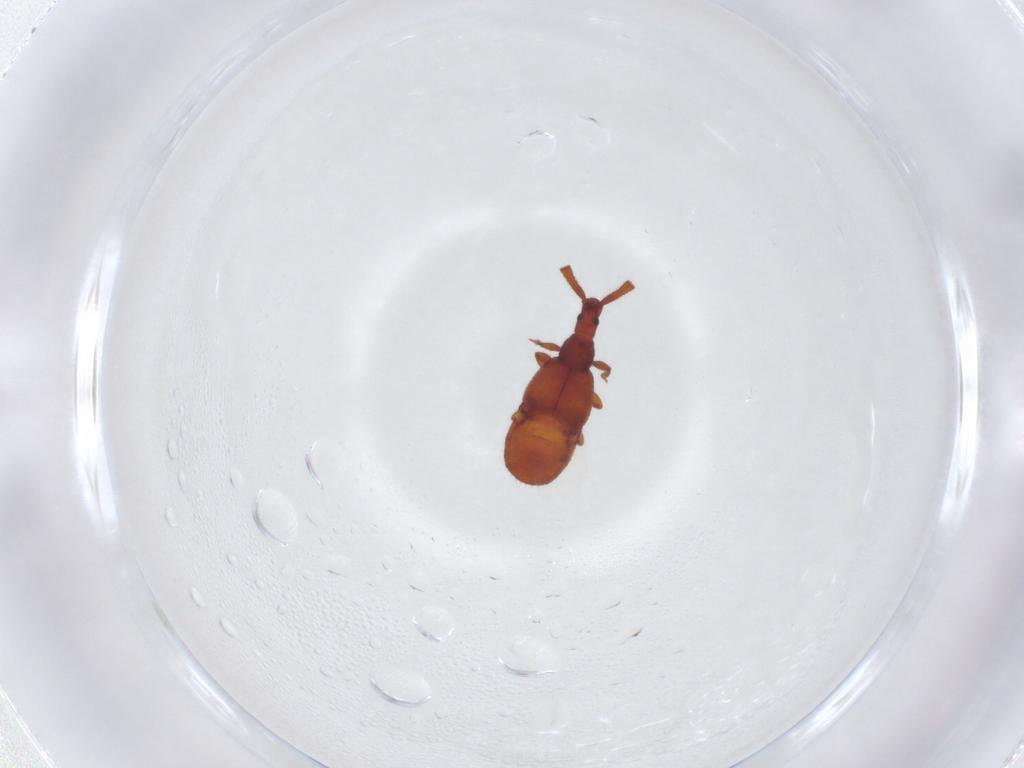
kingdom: Animalia
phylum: Arthropoda
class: Insecta
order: Coleoptera
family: Staphylinidae
